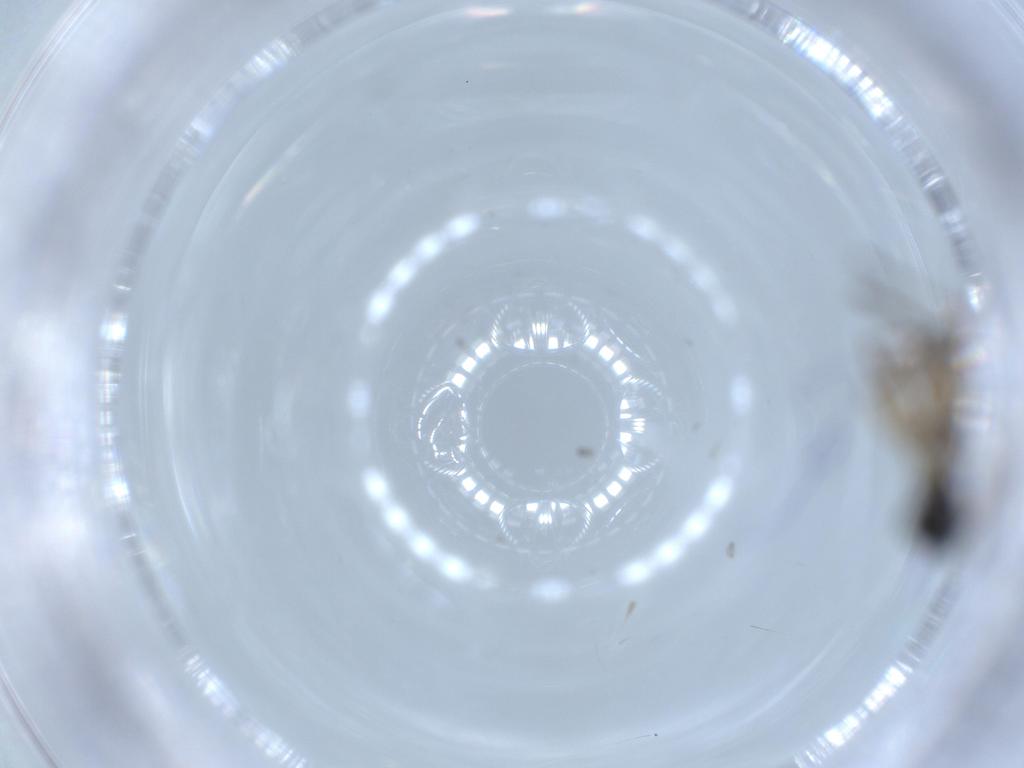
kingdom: Animalia
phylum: Arthropoda
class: Insecta
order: Diptera
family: Sciaridae
